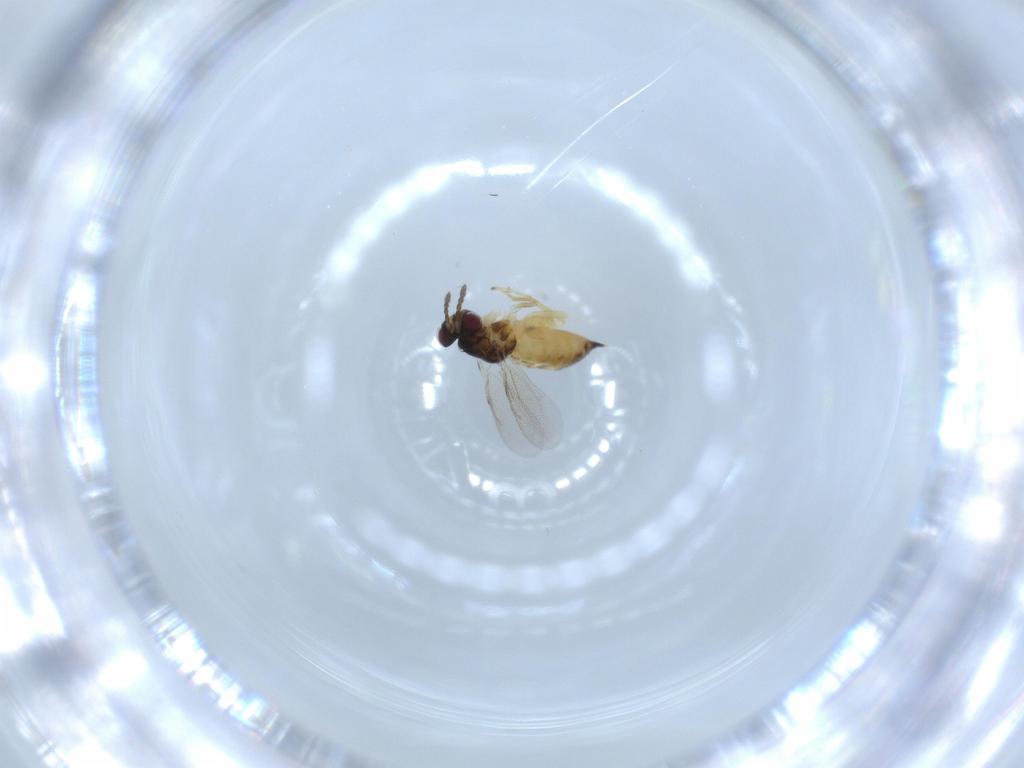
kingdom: Animalia
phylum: Arthropoda
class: Insecta
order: Hymenoptera
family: Eulophidae
